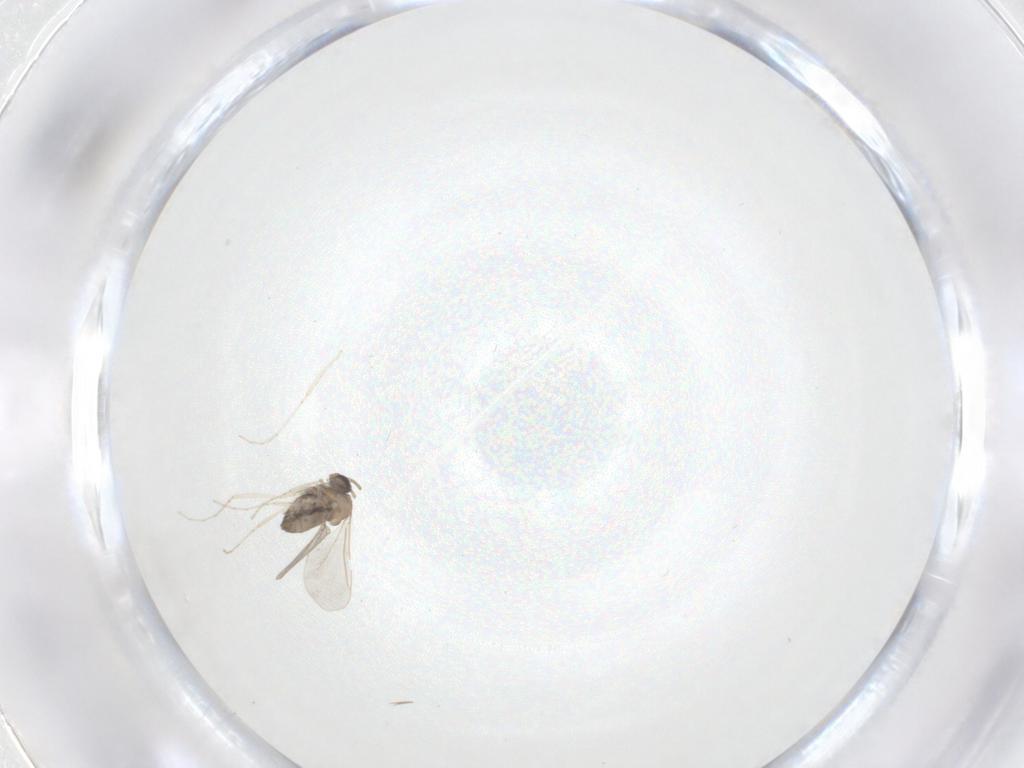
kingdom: Animalia
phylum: Arthropoda
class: Insecta
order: Diptera
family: Cecidomyiidae
